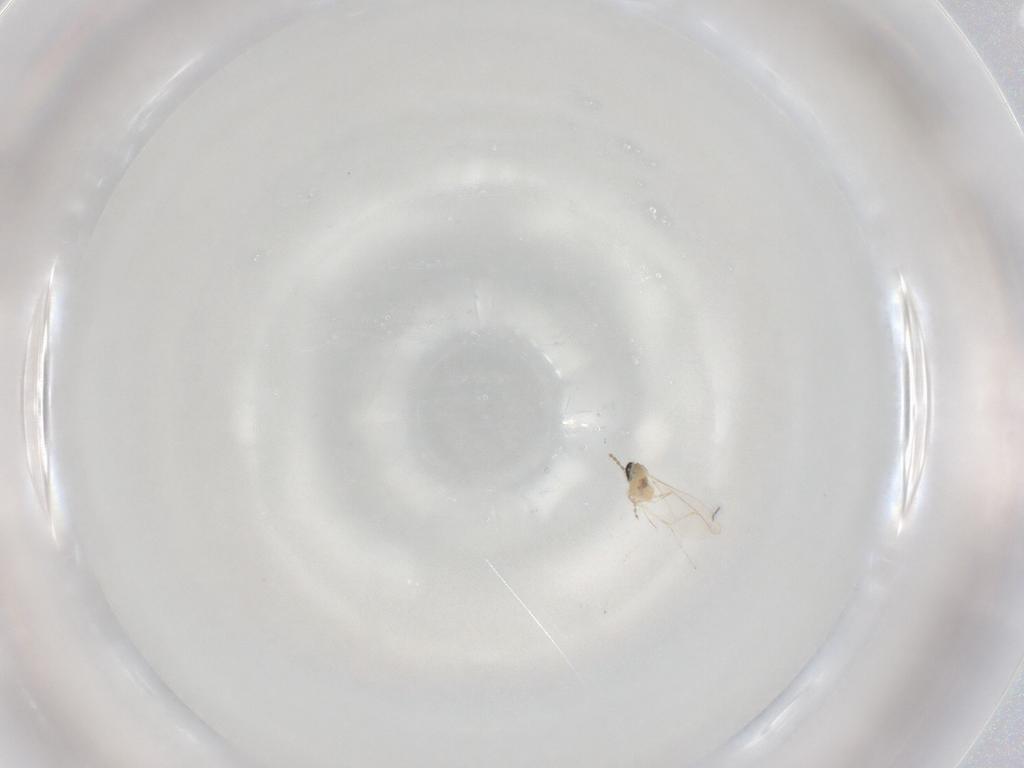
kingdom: Animalia
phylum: Arthropoda
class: Insecta
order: Diptera
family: Cecidomyiidae
